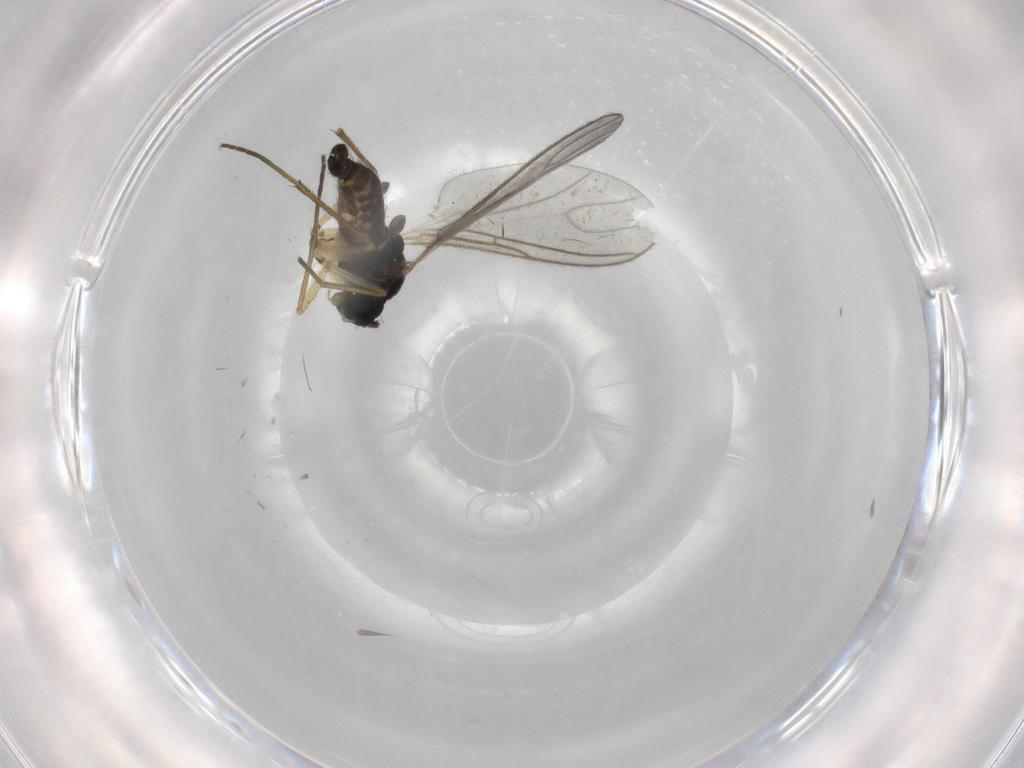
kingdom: Animalia
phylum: Arthropoda
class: Insecta
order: Diptera
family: Sciaridae
